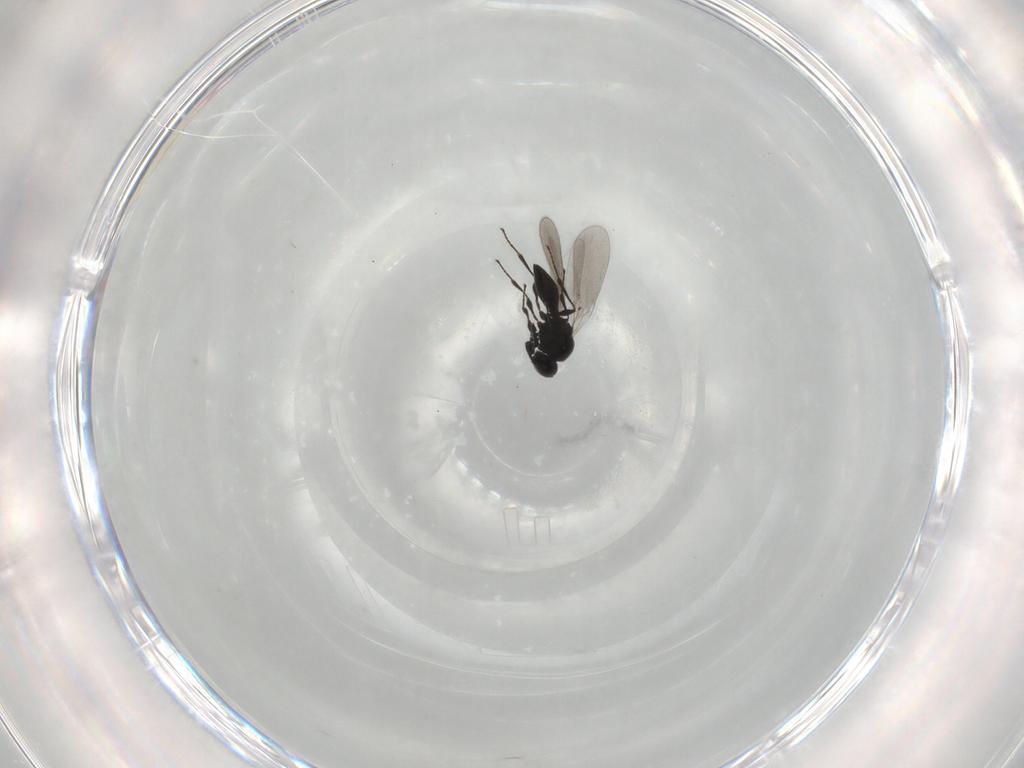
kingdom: Animalia
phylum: Arthropoda
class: Insecta
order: Hymenoptera
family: Platygastridae
